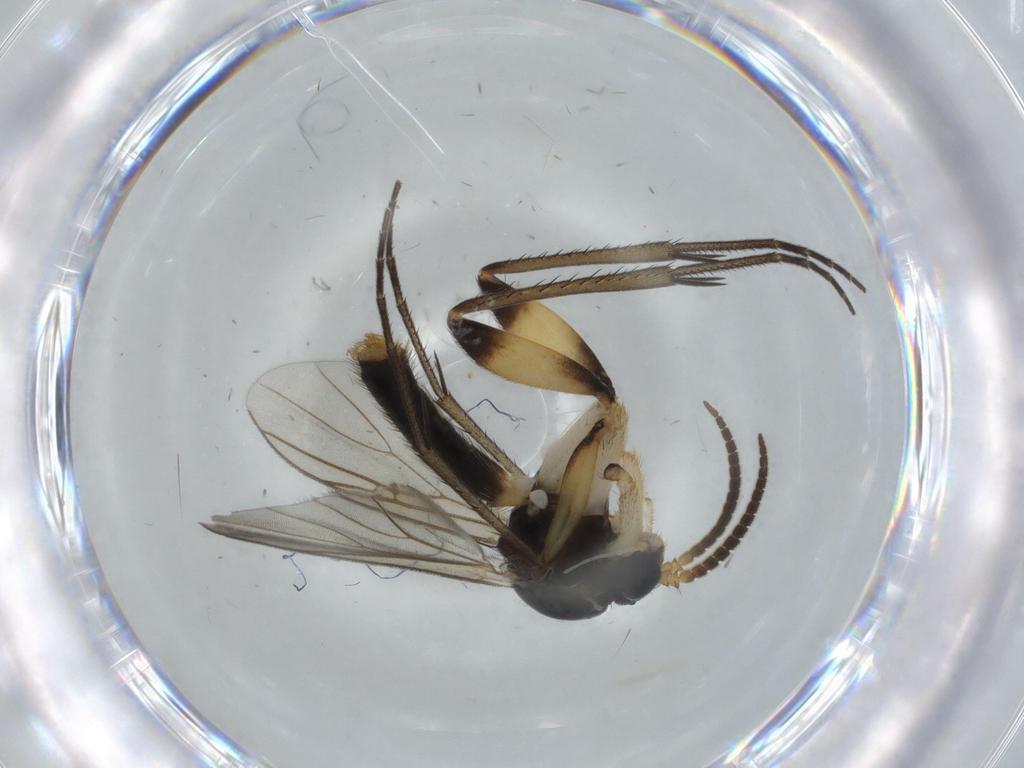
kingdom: Animalia
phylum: Arthropoda
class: Insecta
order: Diptera
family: Cecidomyiidae
